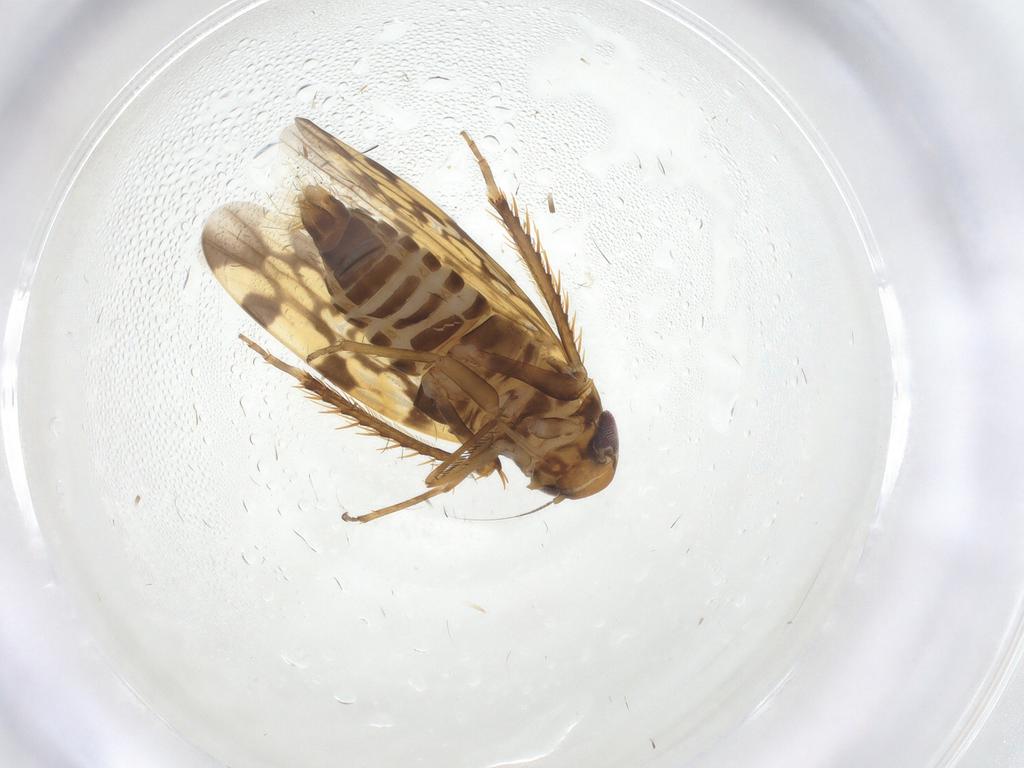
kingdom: Animalia
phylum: Arthropoda
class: Insecta
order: Hemiptera
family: Cicadellidae
